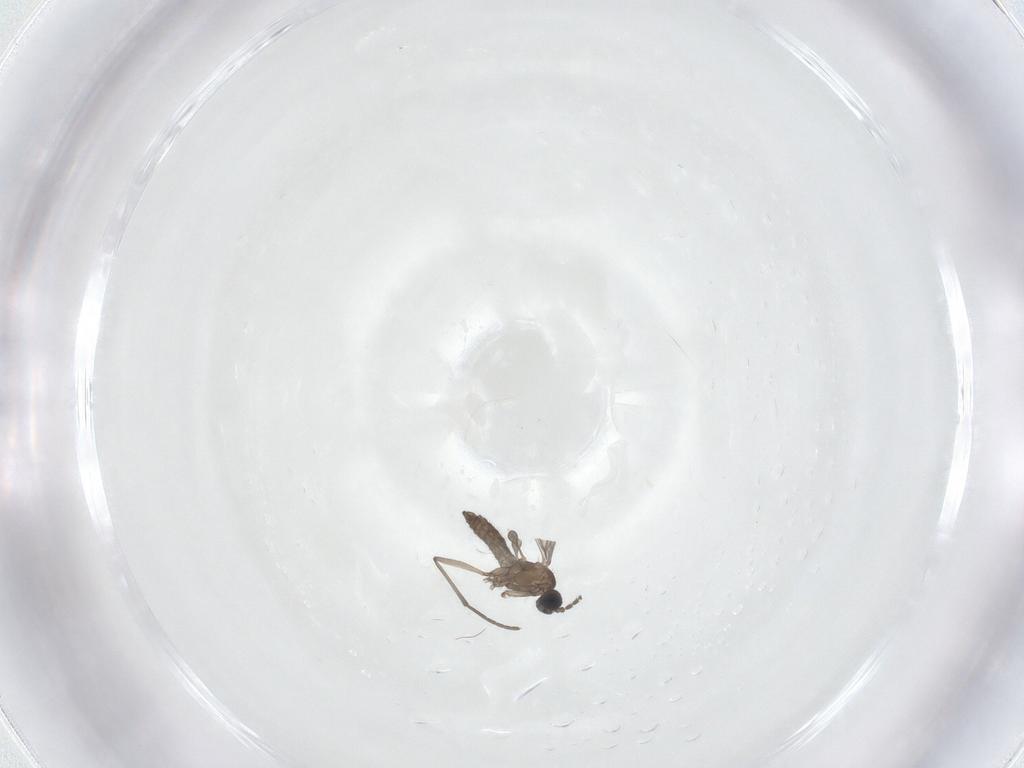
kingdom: Animalia
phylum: Arthropoda
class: Insecta
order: Diptera
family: Sciaridae
